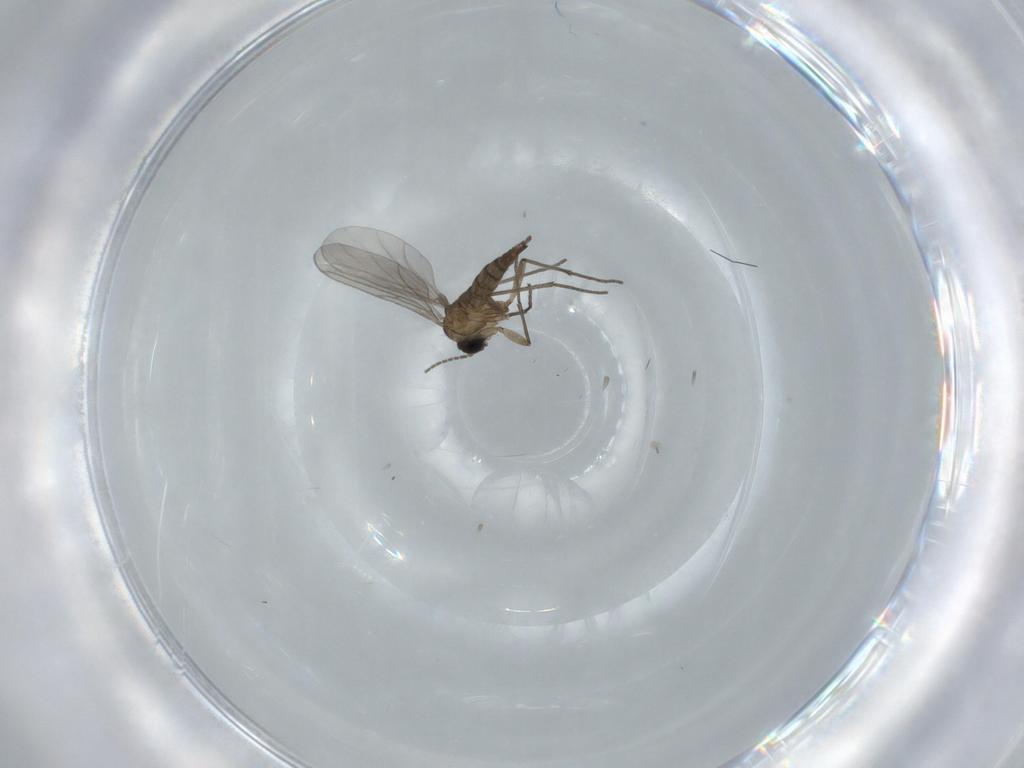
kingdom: Animalia
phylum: Arthropoda
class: Insecta
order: Diptera
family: Sciaridae
